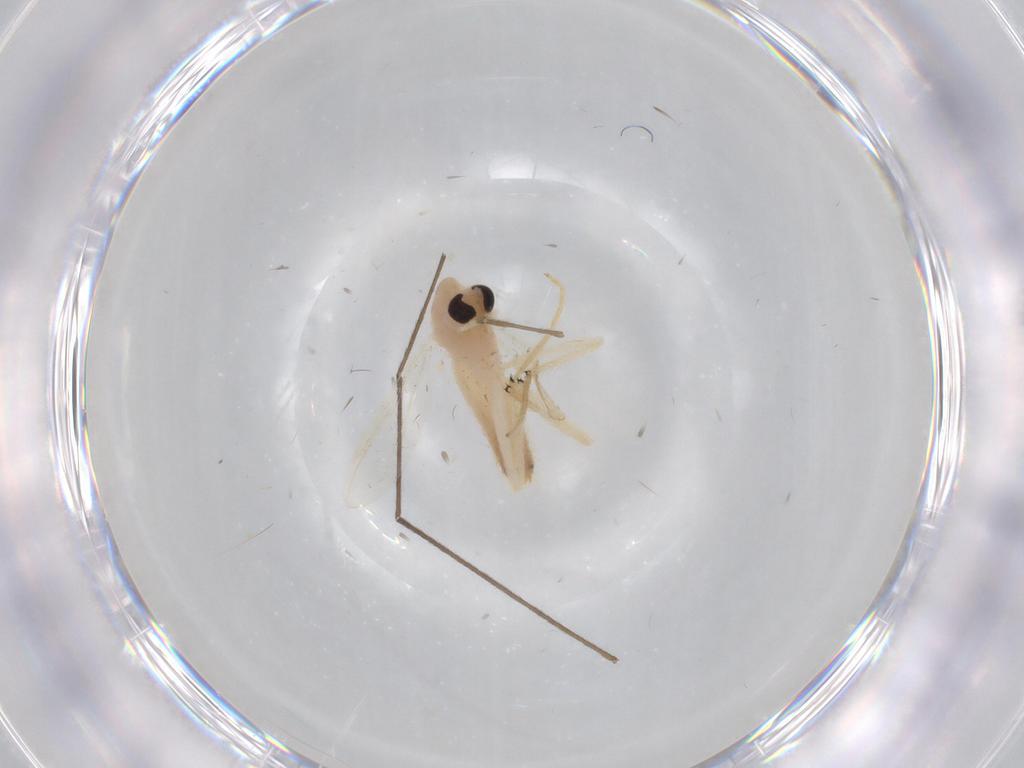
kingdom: Animalia
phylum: Arthropoda
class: Insecta
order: Diptera
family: Chironomidae
